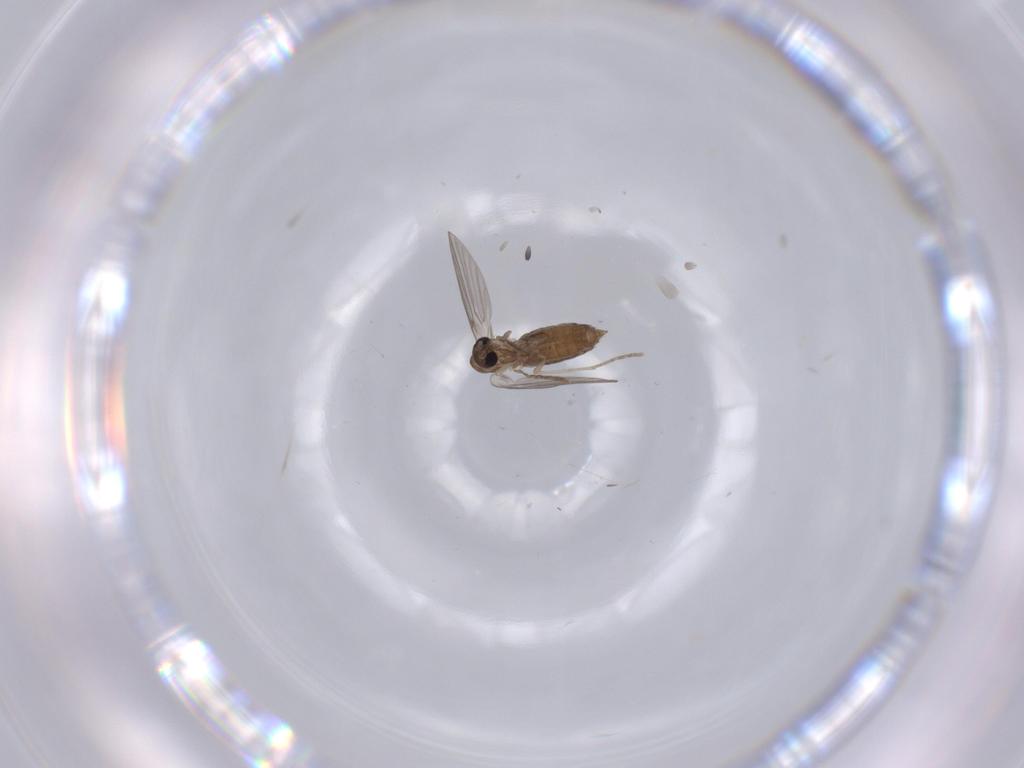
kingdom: Animalia
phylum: Arthropoda
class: Insecta
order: Diptera
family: Limoniidae
